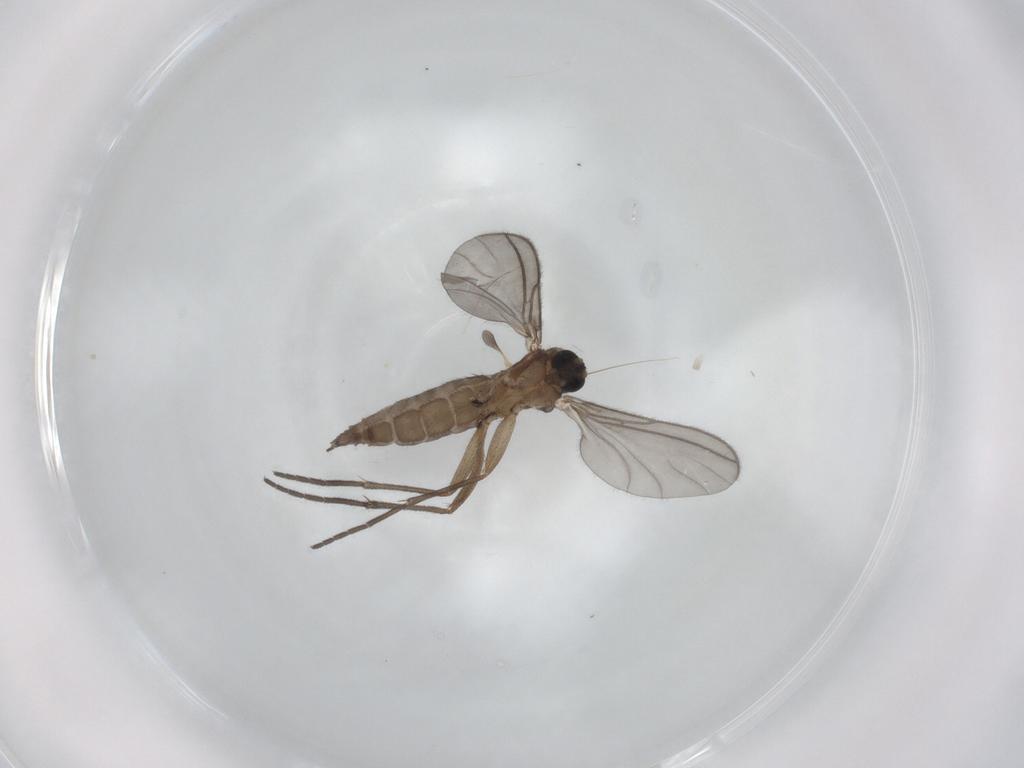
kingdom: Animalia
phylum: Arthropoda
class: Insecta
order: Diptera
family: Sciaridae
